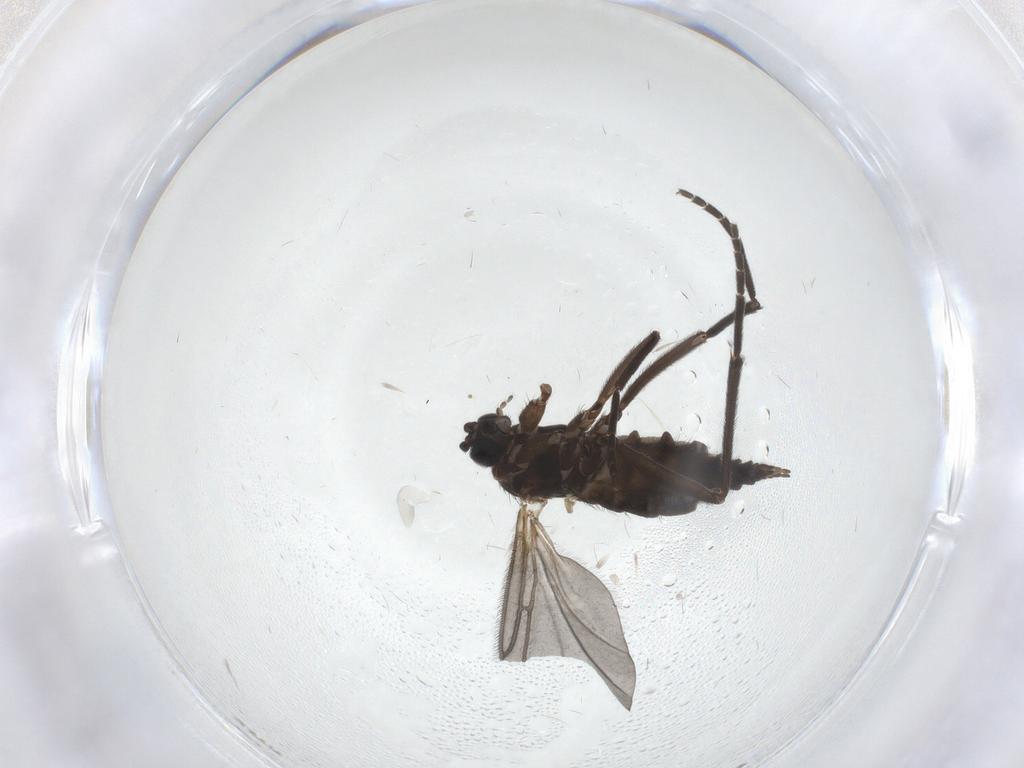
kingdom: Animalia
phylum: Arthropoda
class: Insecta
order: Diptera
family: Sciaridae
